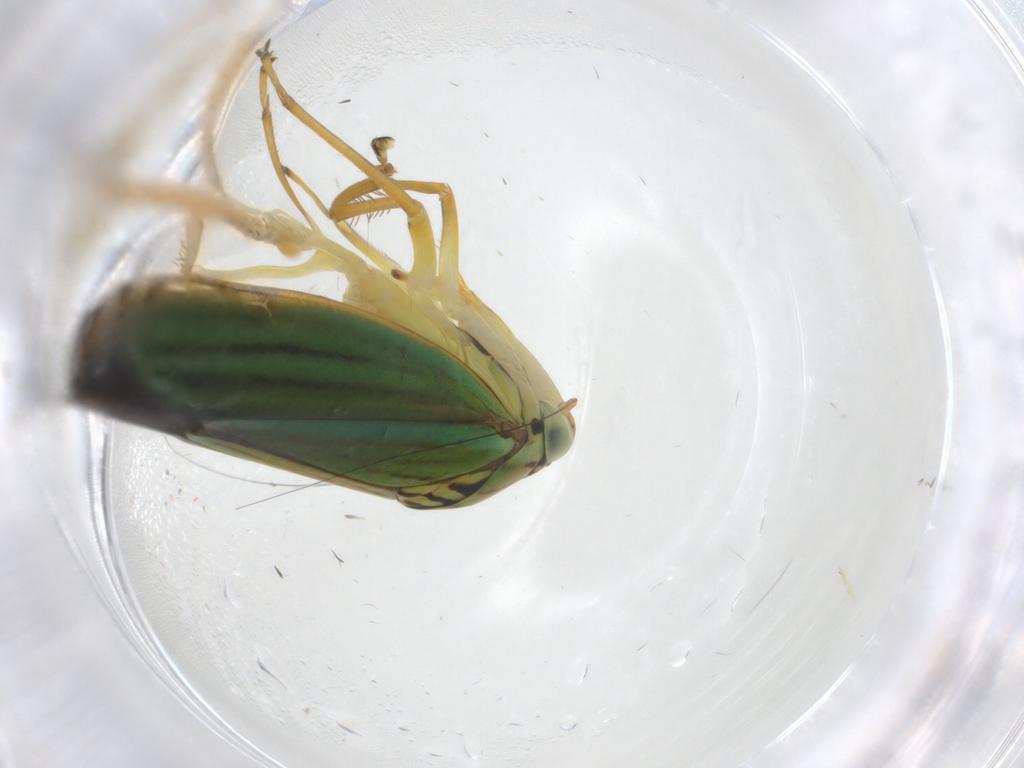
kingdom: Animalia
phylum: Arthropoda
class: Insecta
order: Hemiptera
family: Cicadellidae
